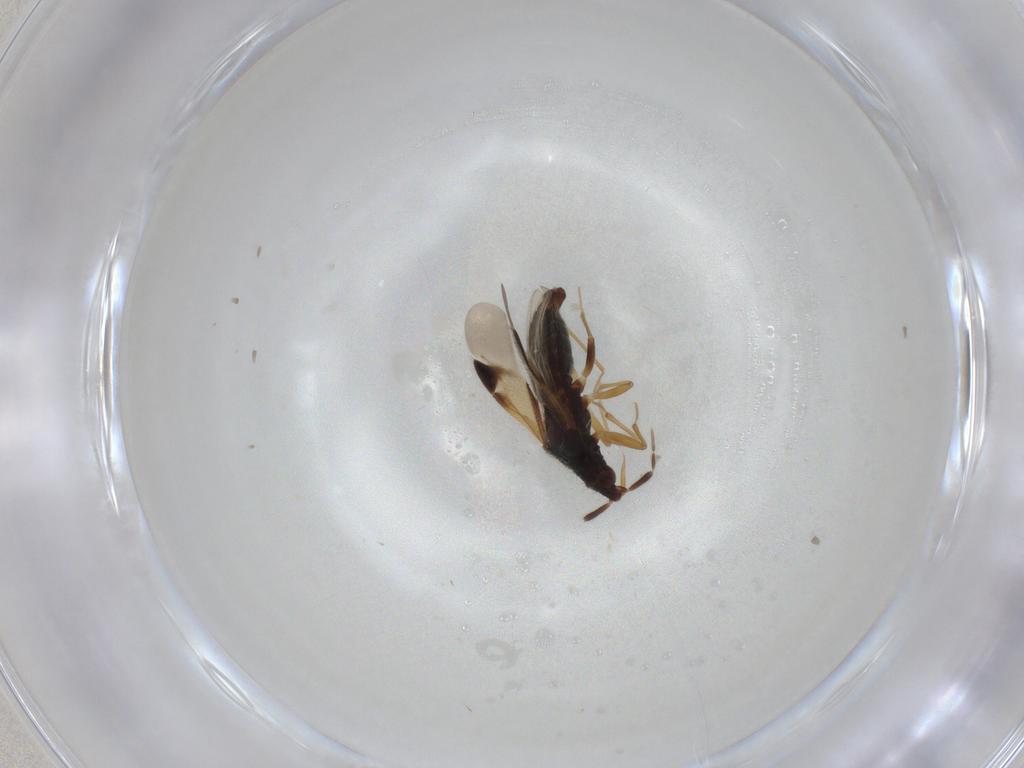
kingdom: Animalia
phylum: Arthropoda
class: Insecta
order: Hemiptera
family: Anthocoridae
